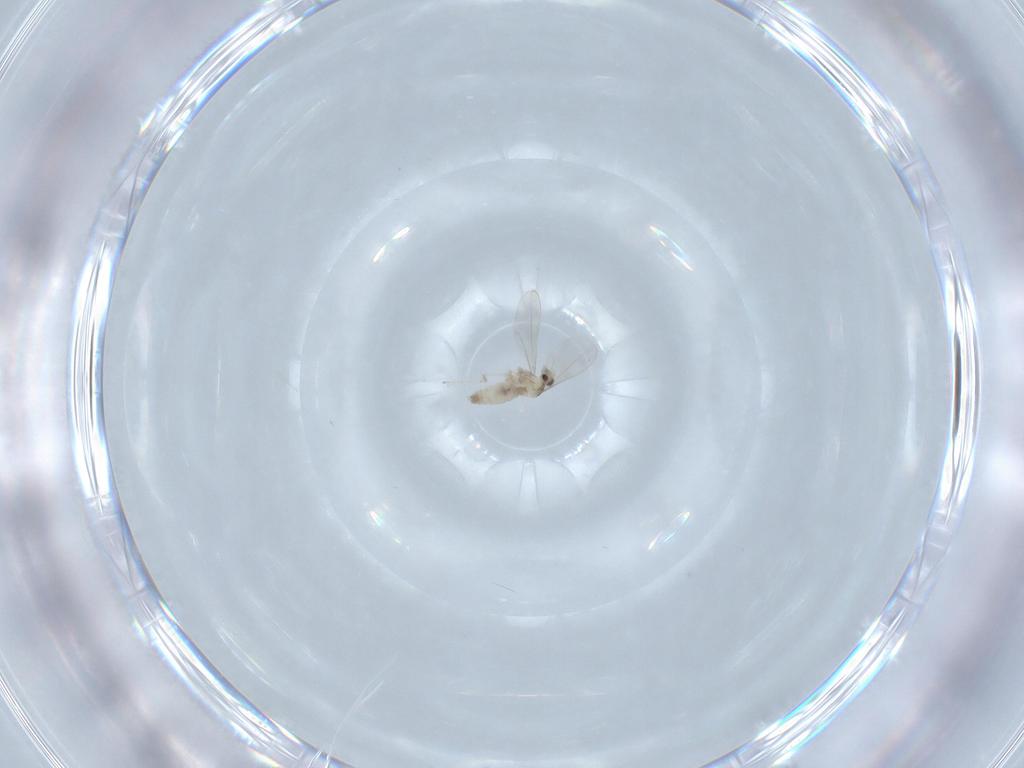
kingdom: Animalia
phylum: Arthropoda
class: Insecta
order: Diptera
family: Cecidomyiidae
